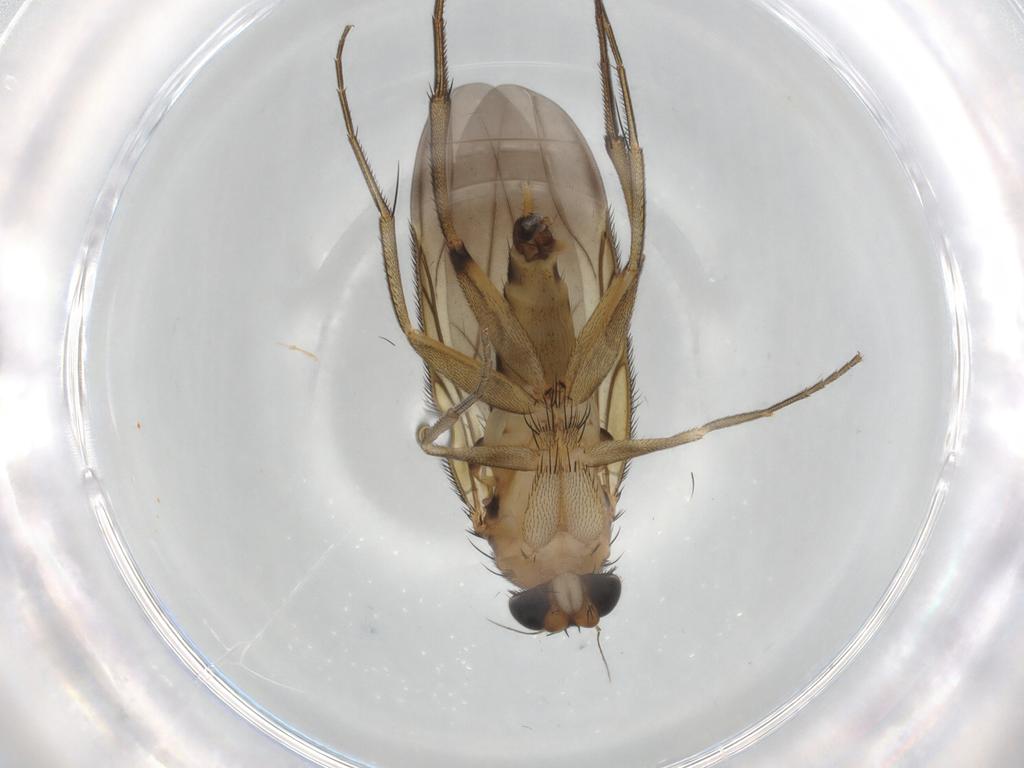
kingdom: Animalia
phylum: Arthropoda
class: Insecta
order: Diptera
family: Phoridae
